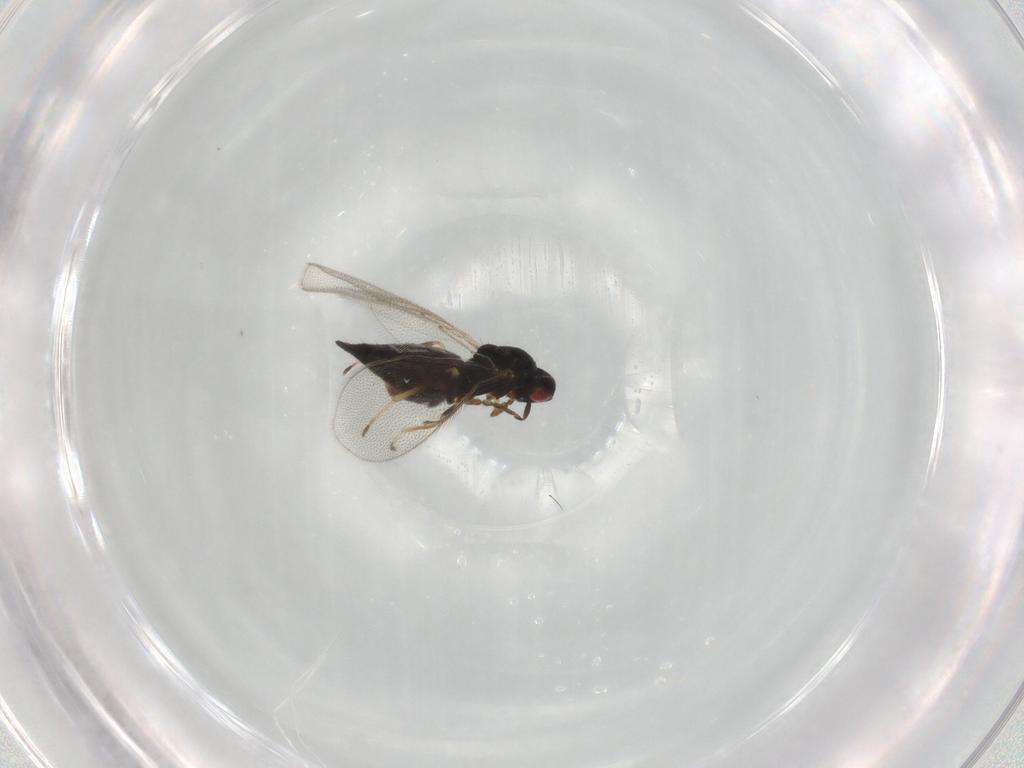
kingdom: Animalia
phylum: Arthropoda
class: Insecta
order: Hymenoptera
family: Eulophidae
